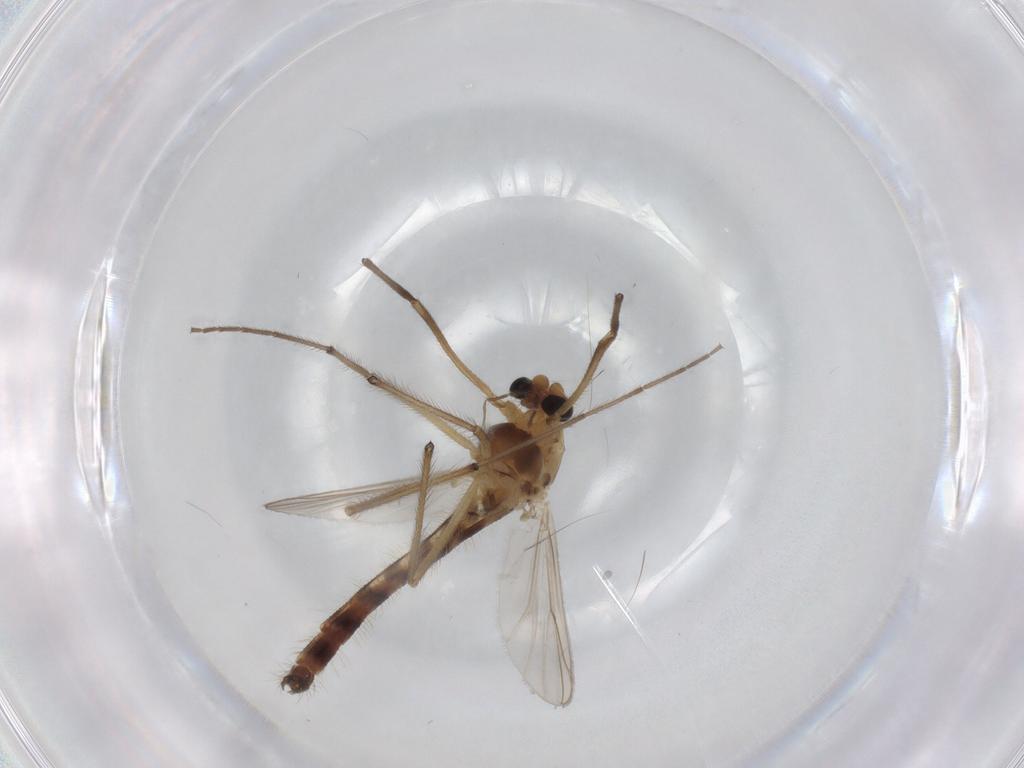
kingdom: Animalia
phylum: Arthropoda
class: Insecta
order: Diptera
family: Chironomidae
